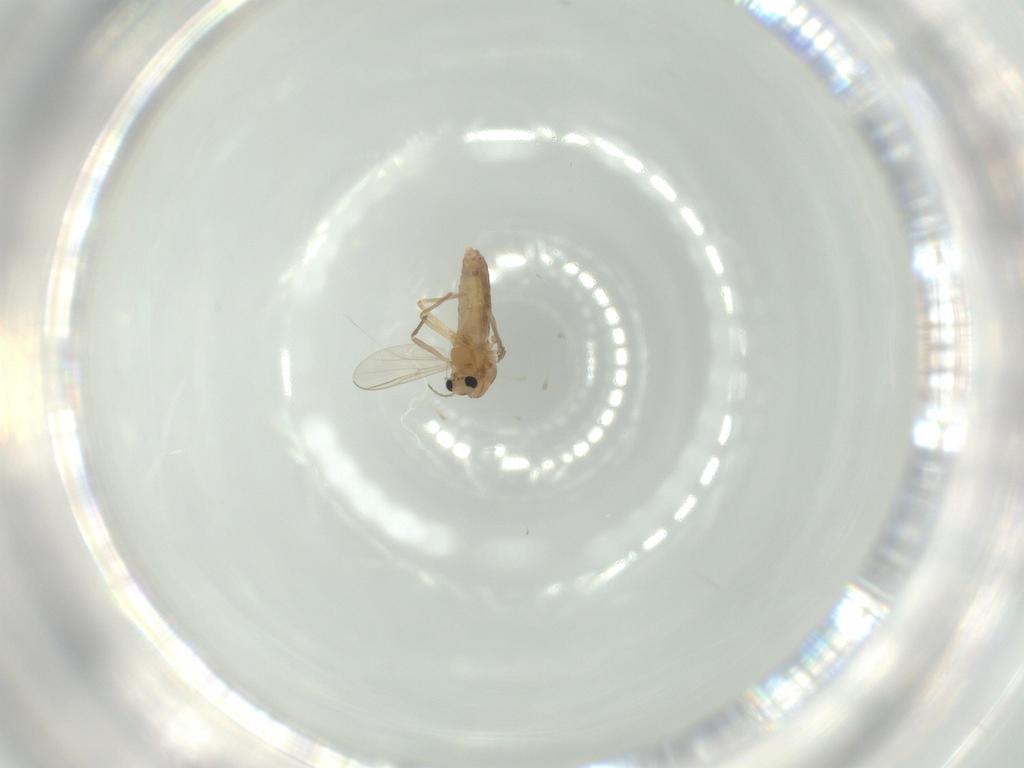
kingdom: Animalia
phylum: Arthropoda
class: Insecta
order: Diptera
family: Chironomidae
